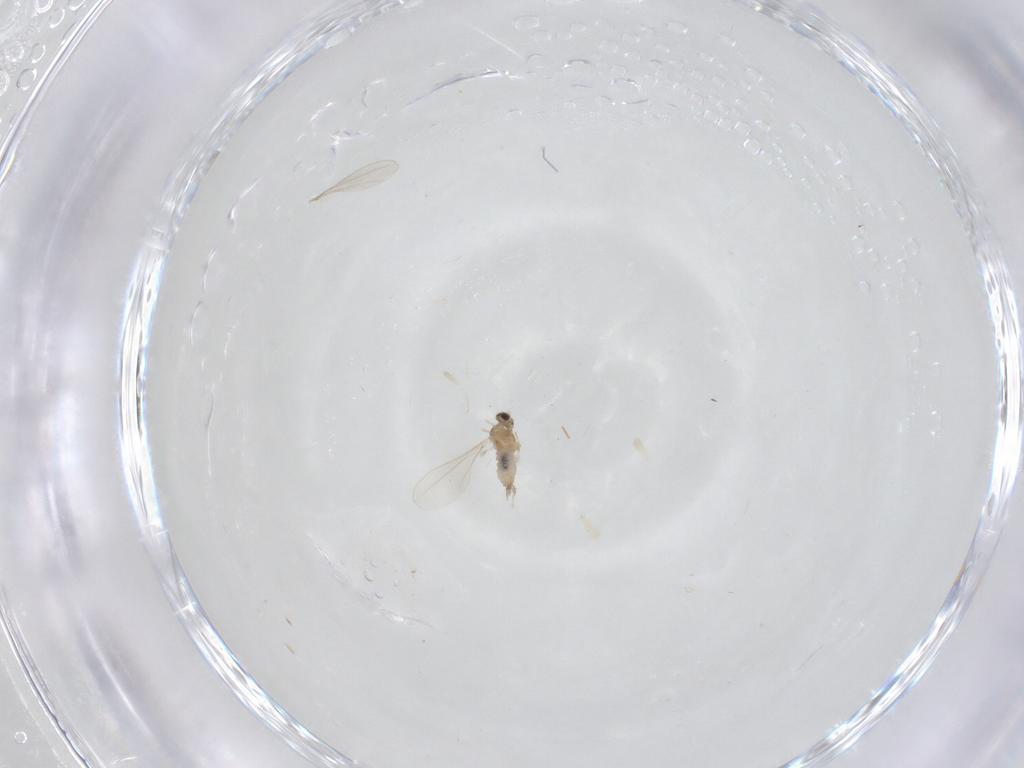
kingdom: Animalia
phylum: Arthropoda
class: Insecta
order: Diptera
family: Cecidomyiidae
